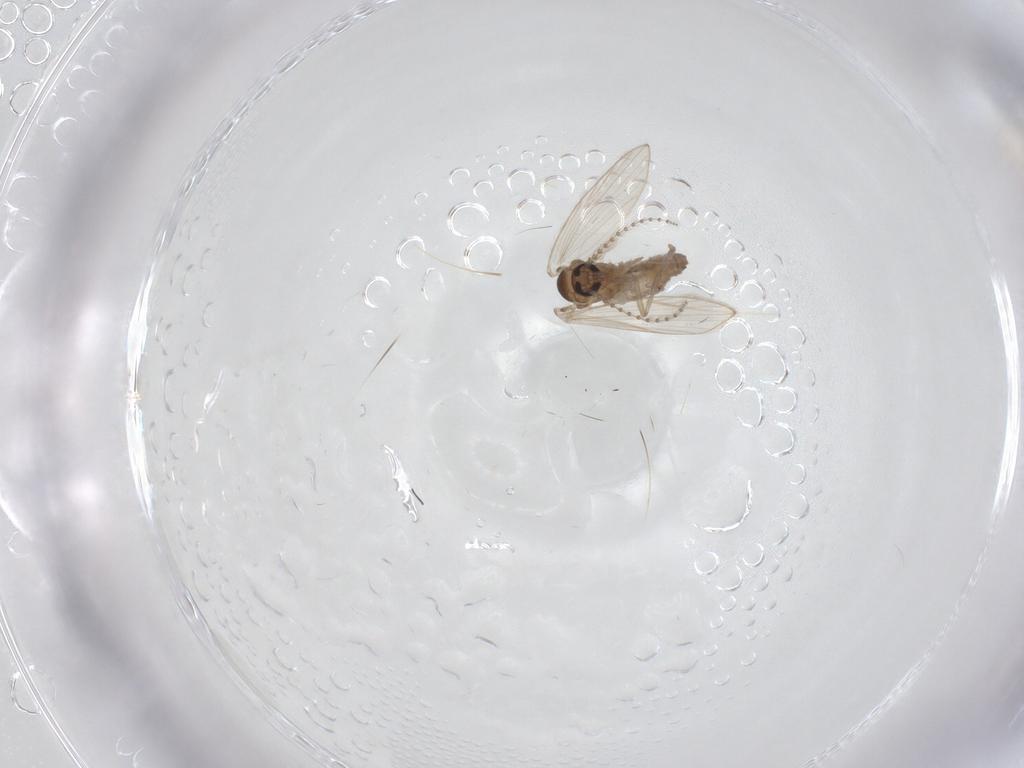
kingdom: Animalia
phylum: Arthropoda
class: Insecta
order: Diptera
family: Psychodidae
